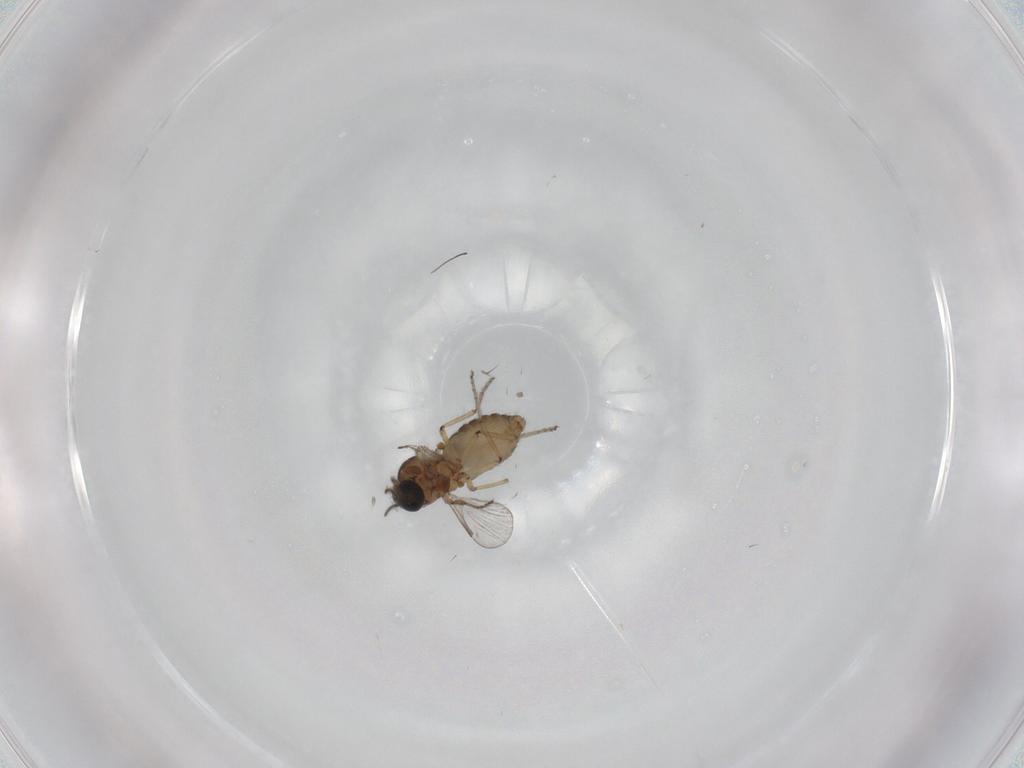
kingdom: Animalia
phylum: Arthropoda
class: Insecta
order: Diptera
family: Ceratopogonidae
